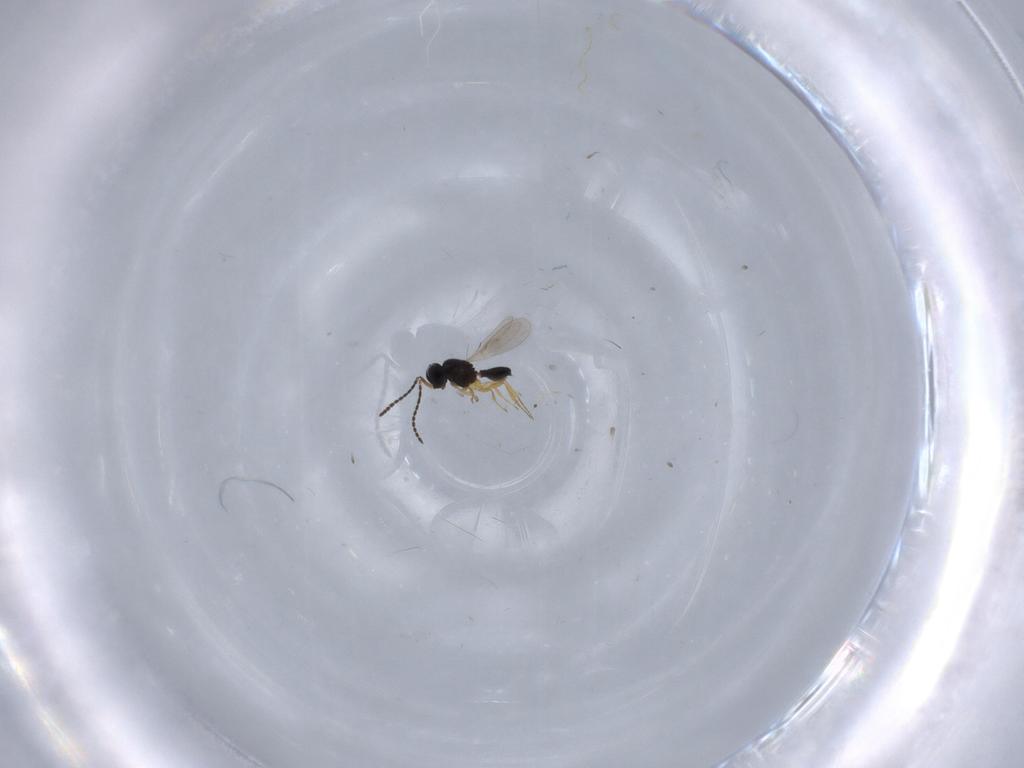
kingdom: Animalia
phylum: Arthropoda
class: Insecta
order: Hymenoptera
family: Scelionidae
